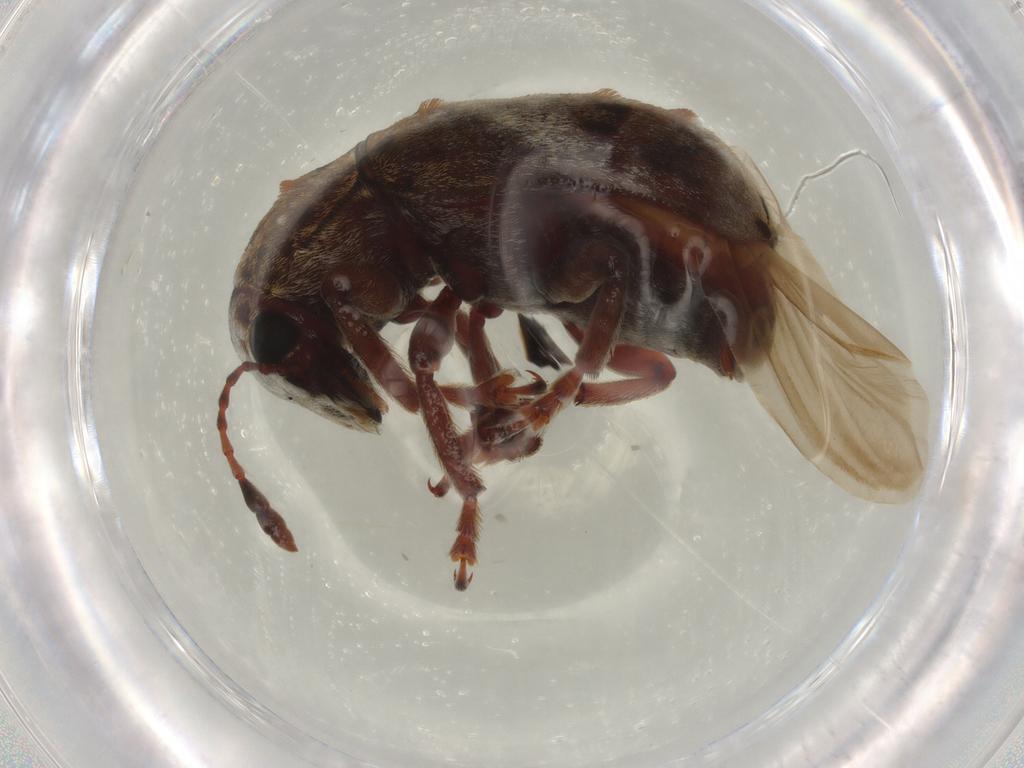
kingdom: Animalia
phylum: Arthropoda
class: Insecta
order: Coleoptera
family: Anthribidae
